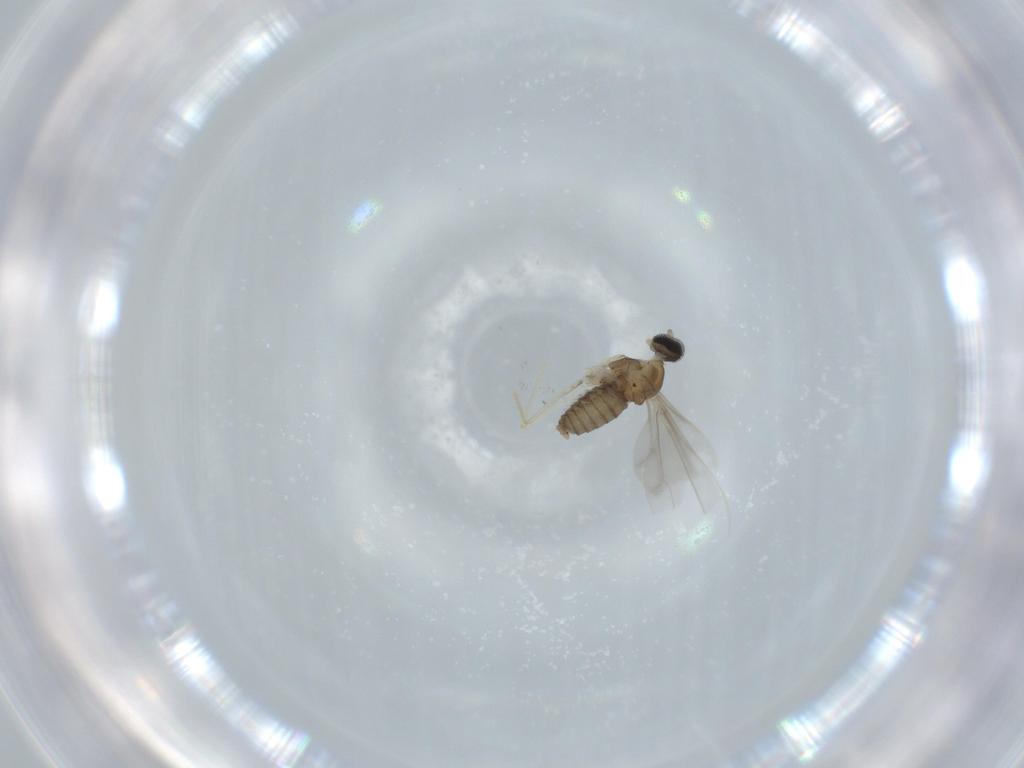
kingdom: Animalia
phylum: Arthropoda
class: Insecta
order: Diptera
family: Cecidomyiidae
